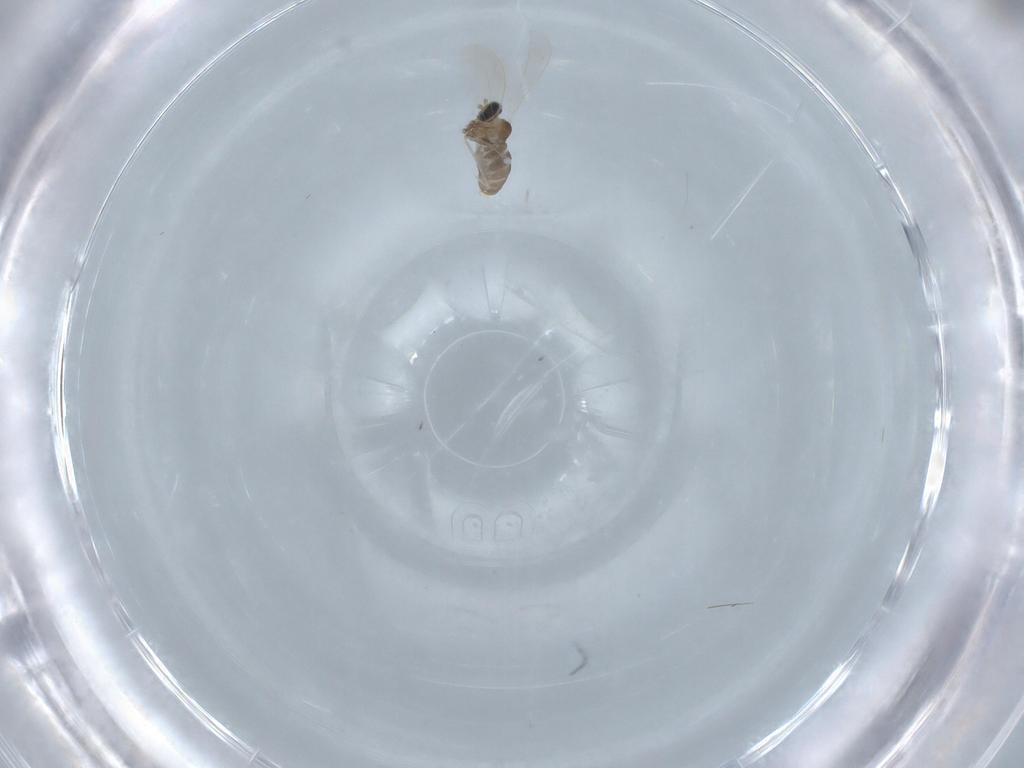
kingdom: Animalia
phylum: Arthropoda
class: Insecta
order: Diptera
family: Cecidomyiidae
